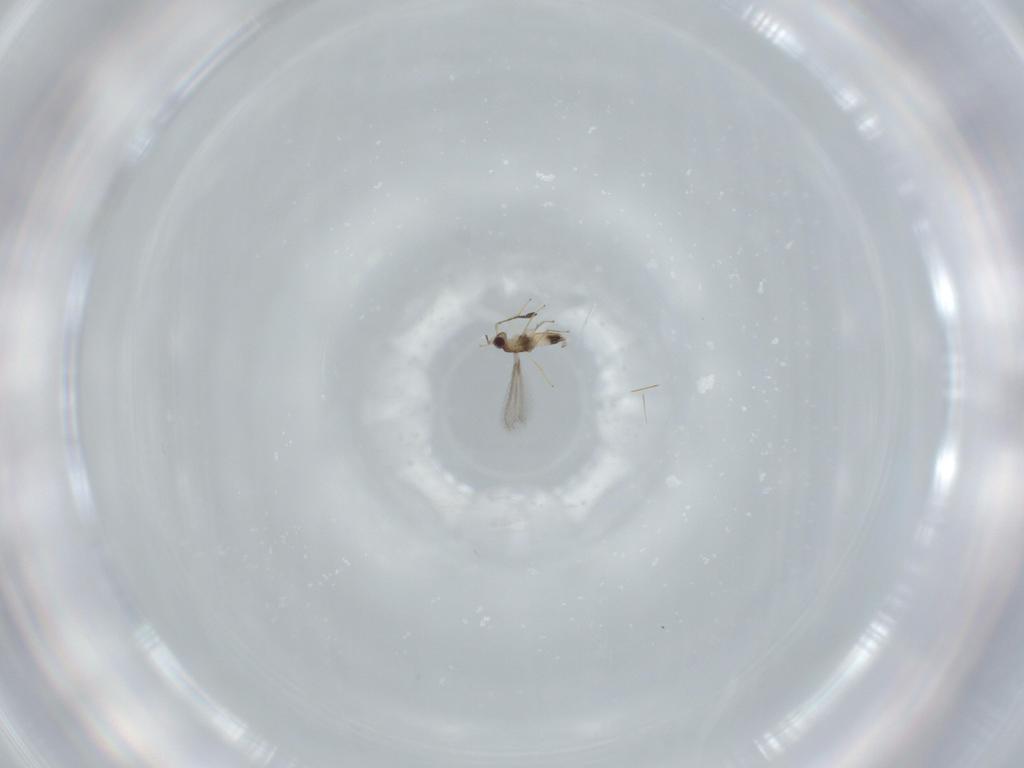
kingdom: Animalia
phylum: Arthropoda
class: Insecta
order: Hymenoptera
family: Mymaridae
